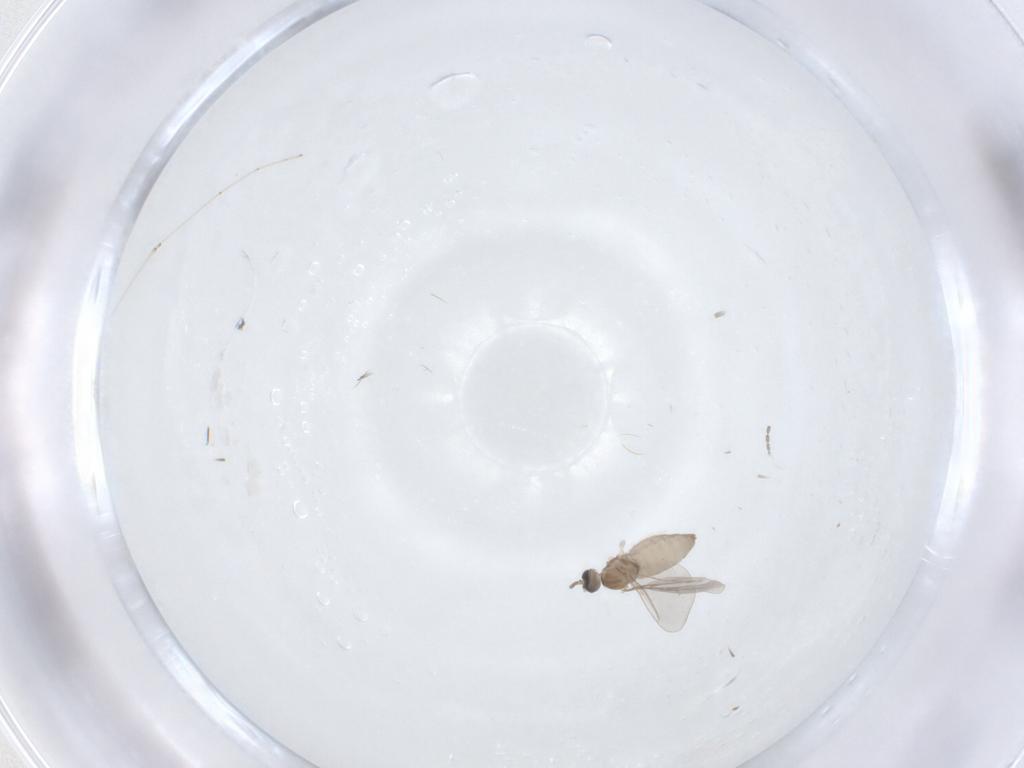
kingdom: Animalia
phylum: Arthropoda
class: Insecta
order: Diptera
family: Cecidomyiidae
